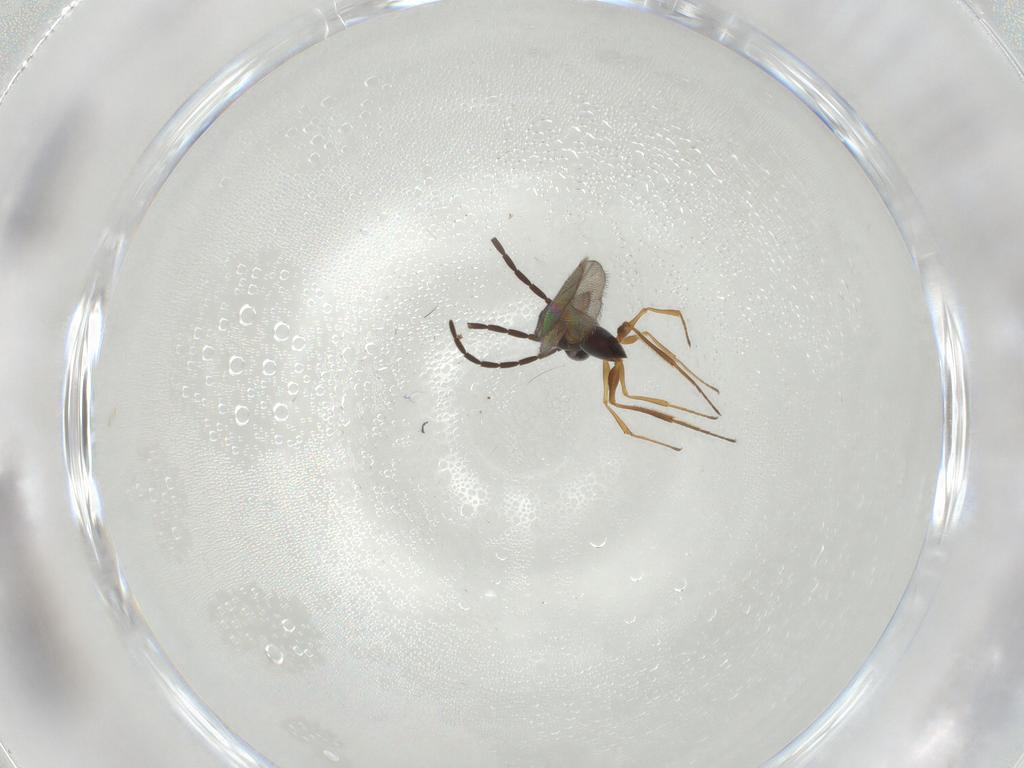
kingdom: Animalia
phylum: Arthropoda
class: Insecta
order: Hymenoptera
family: Figitidae
